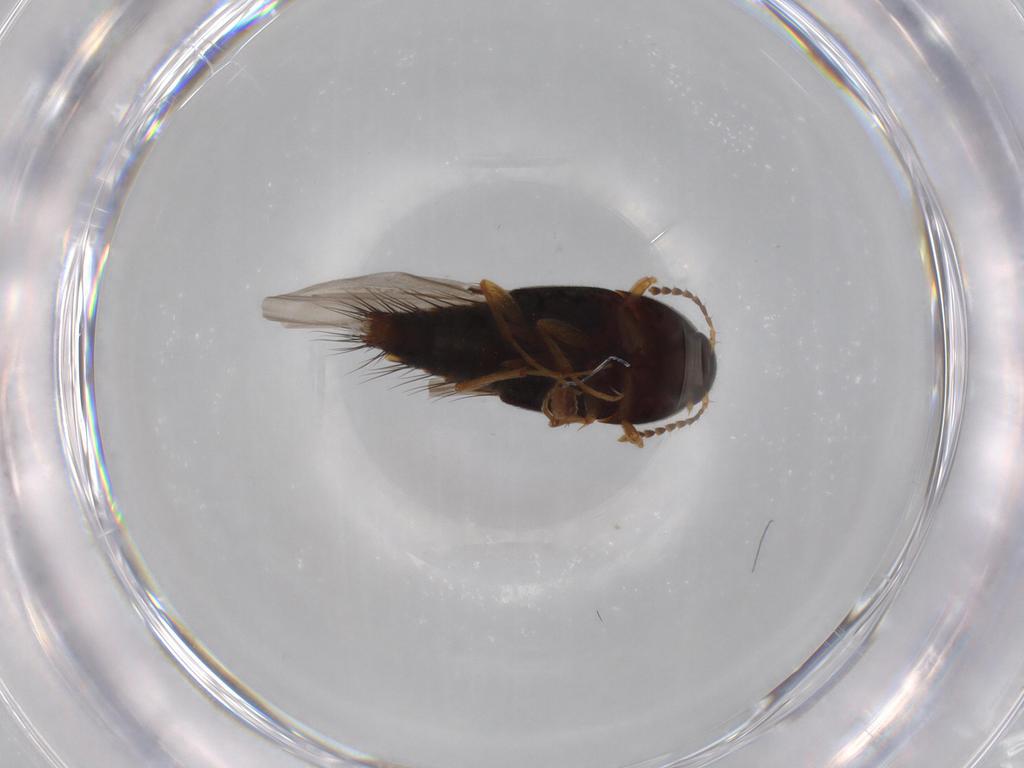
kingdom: Animalia
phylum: Arthropoda
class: Insecta
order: Coleoptera
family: Staphylinidae
